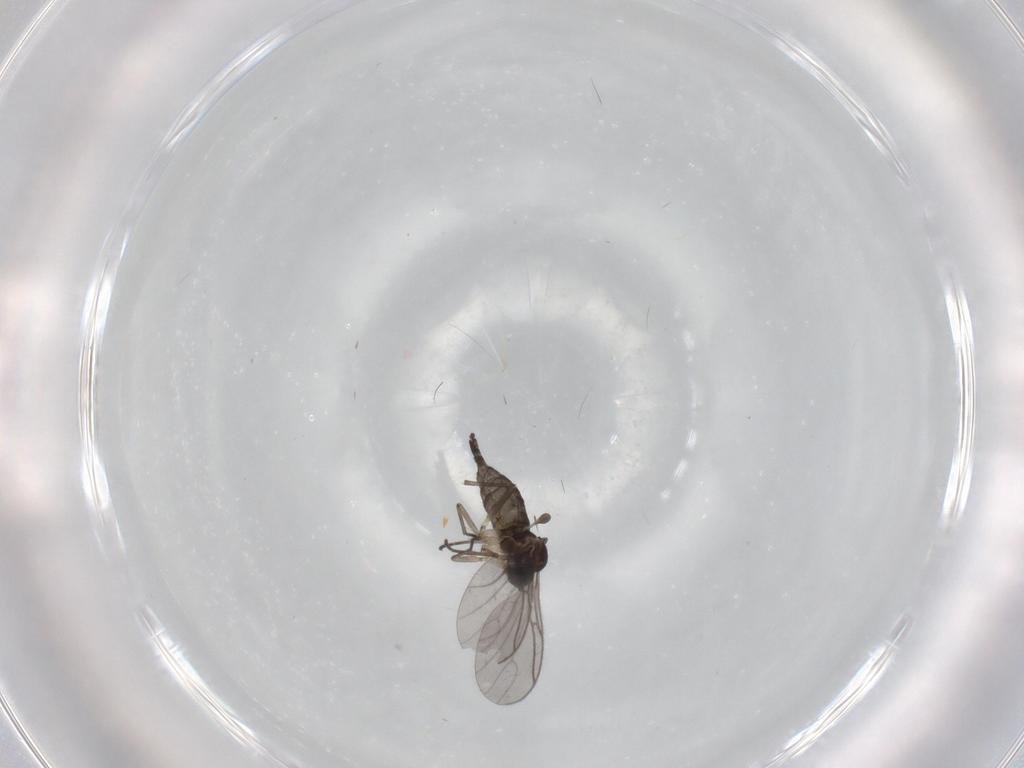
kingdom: Animalia
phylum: Arthropoda
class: Insecta
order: Diptera
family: Sciaridae
